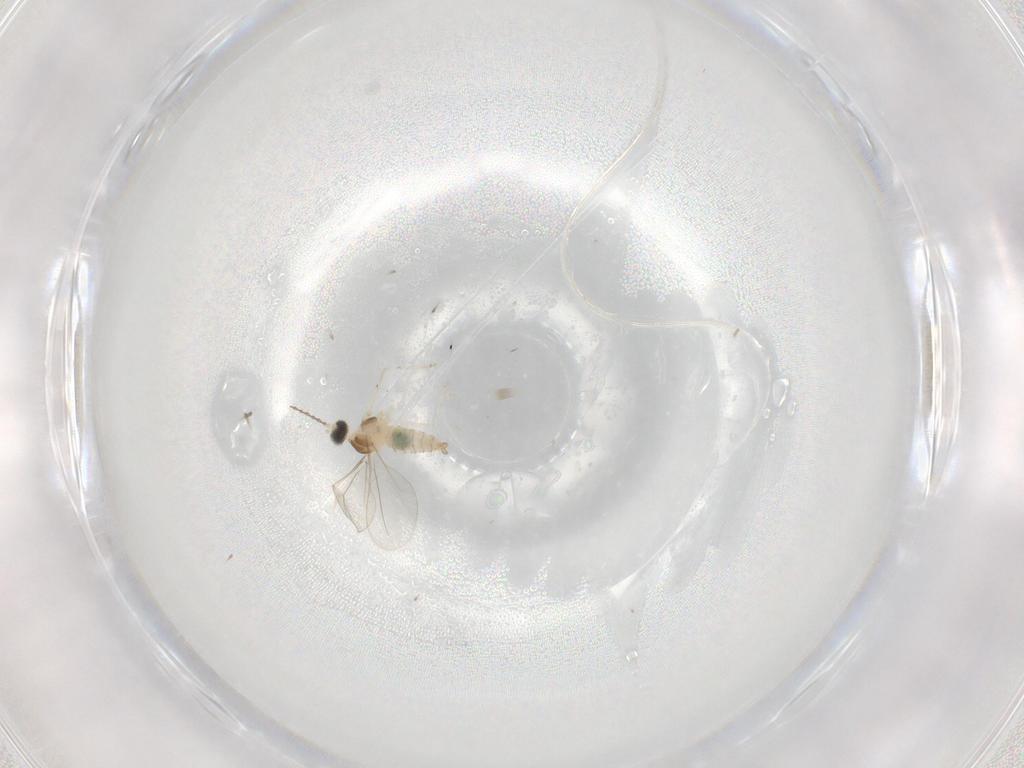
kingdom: Animalia
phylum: Arthropoda
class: Insecta
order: Diptera
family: Cecidomyiidae
